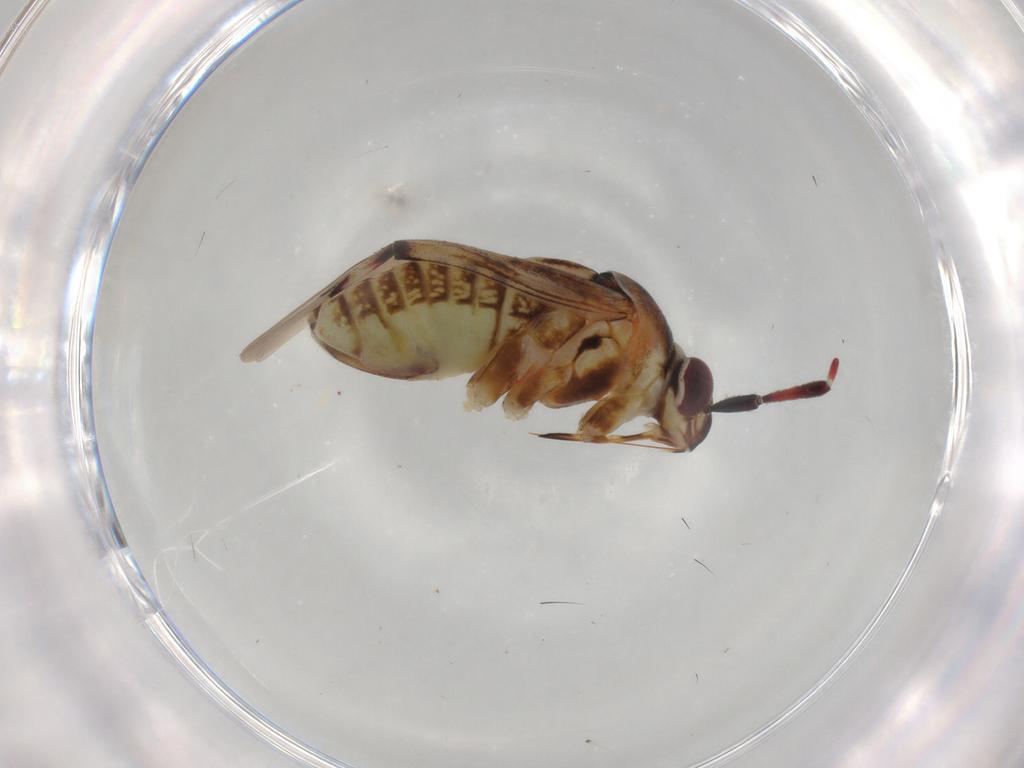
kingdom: Animalia
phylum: Arthropoda
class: Insecta
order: Hemiptera
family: Miridae
